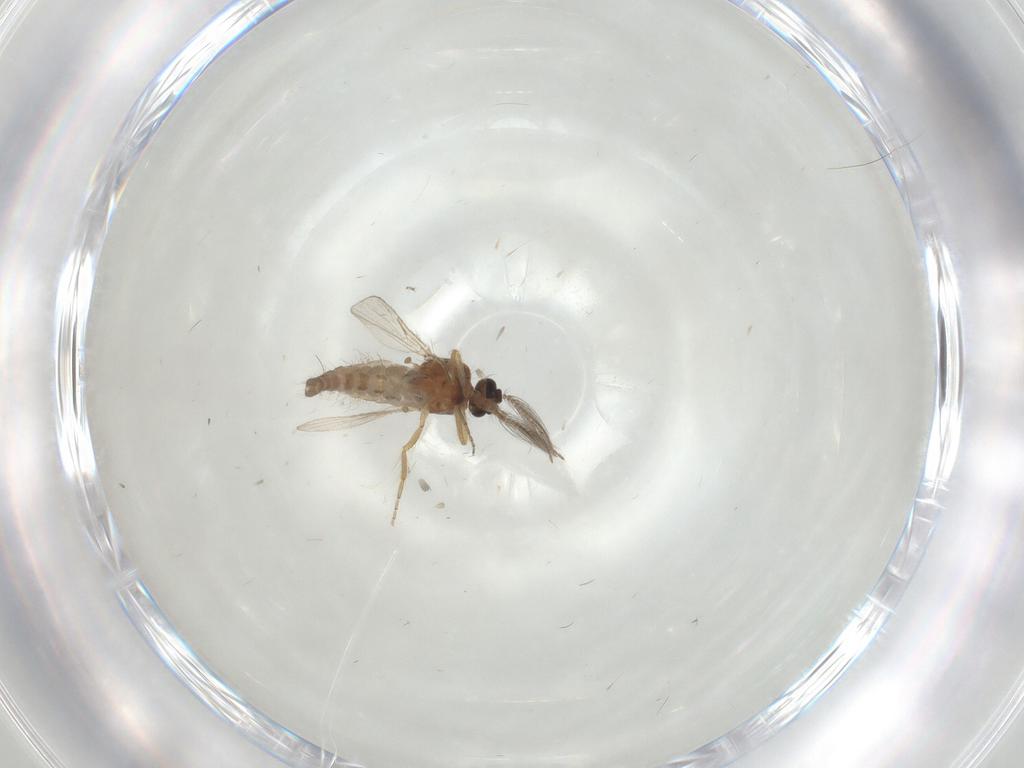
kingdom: Animalia
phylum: Arthropoda
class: Insecta
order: Diptera
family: Ceratopogonidae
